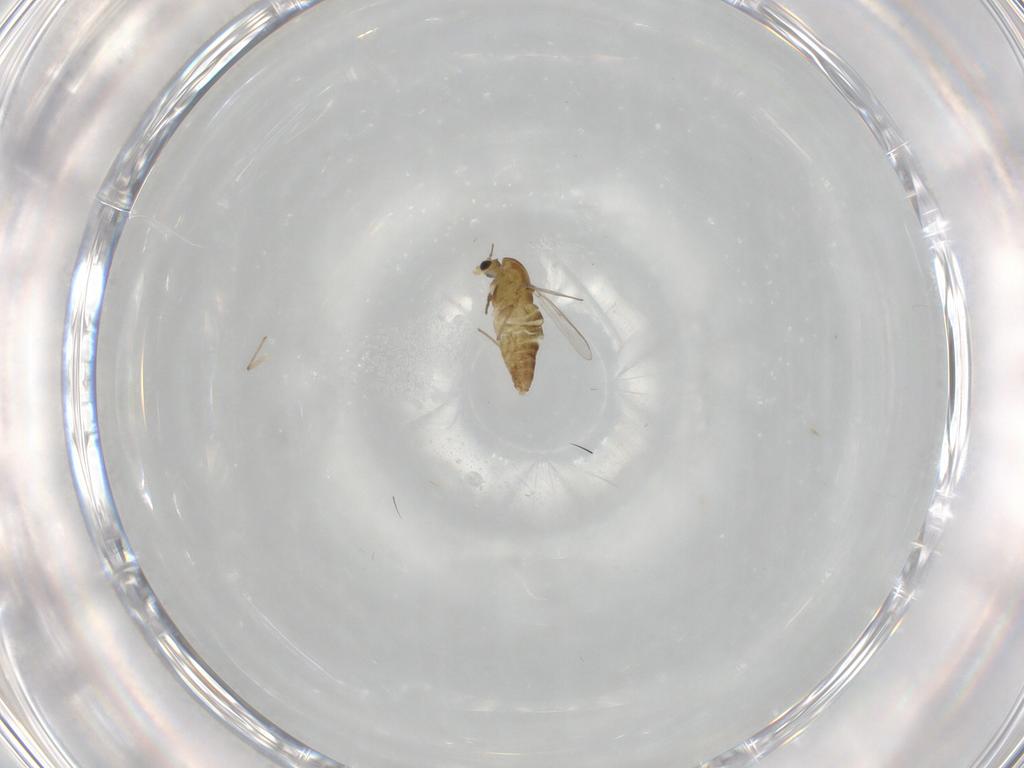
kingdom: Animalia
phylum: Arthropoda
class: Insecta
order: Diptera
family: Chironomidae
